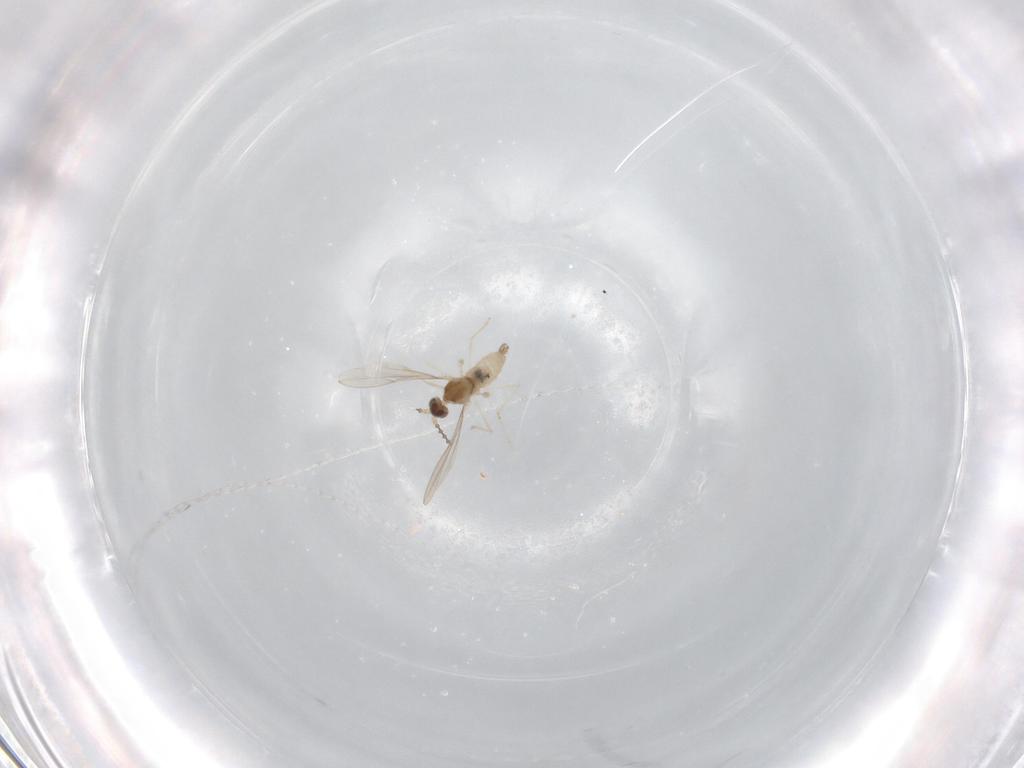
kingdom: Animalia
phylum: Arthropoda
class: Insecta
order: Diptera
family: Cecidomyiidae
